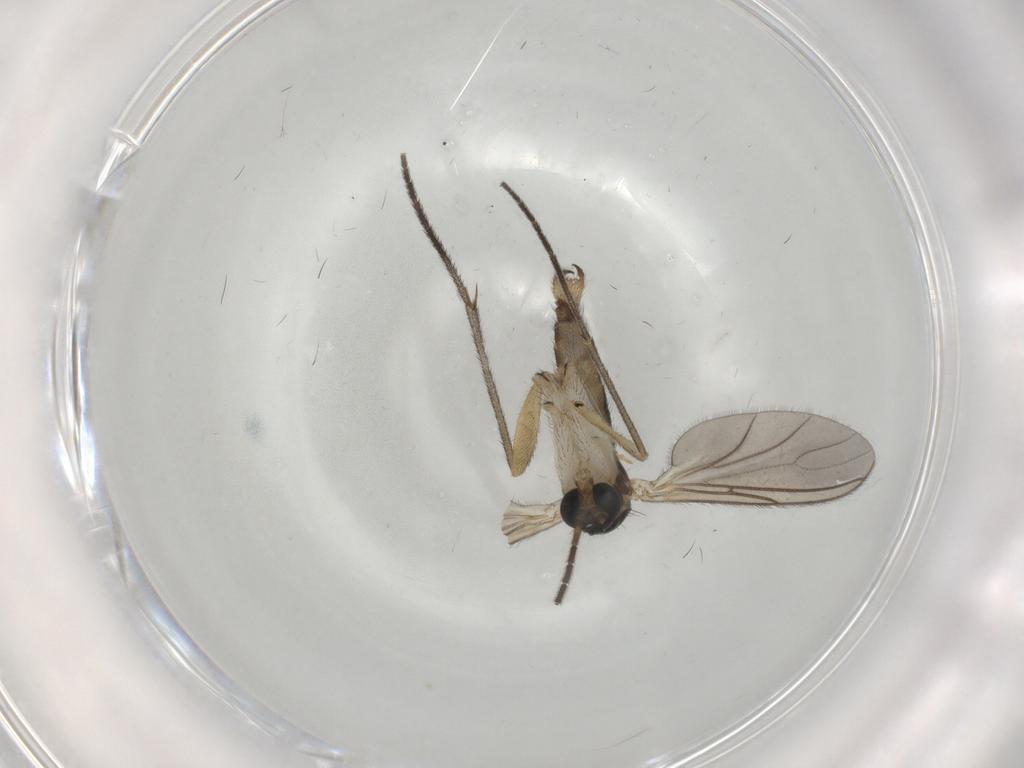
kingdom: Animalia
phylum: Arthropoda
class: Insecta
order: Diptera
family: Sciaridae
